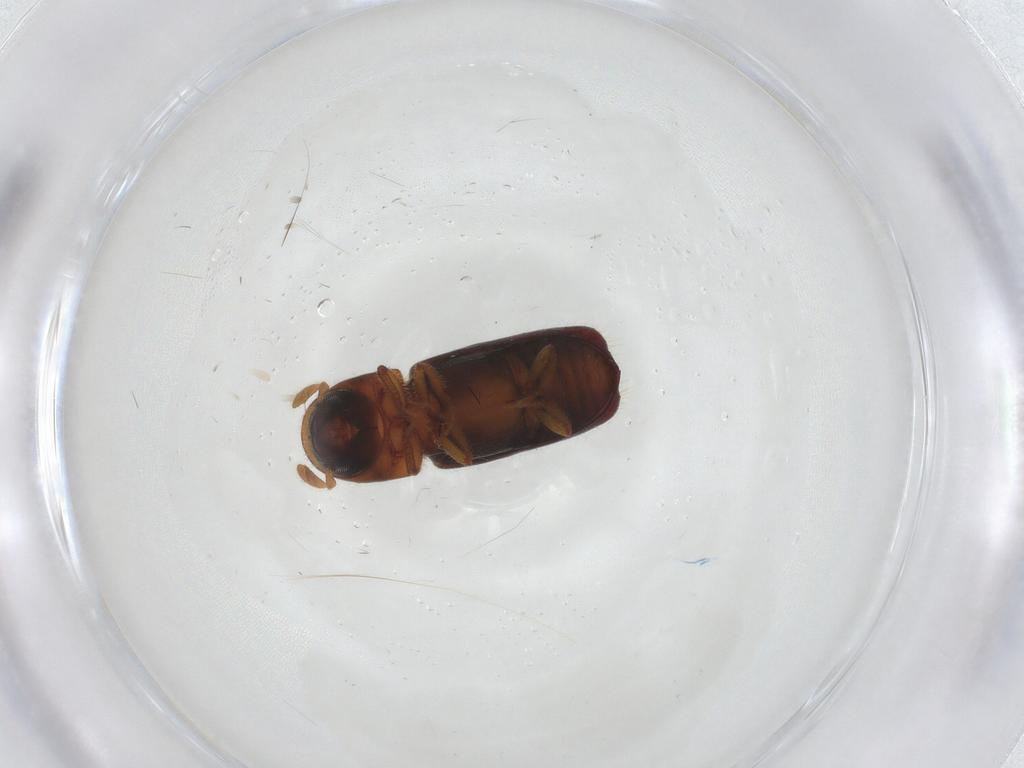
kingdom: Animalia
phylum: Arthropoda
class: Insecta
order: Coleoptera
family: Curculionidae
